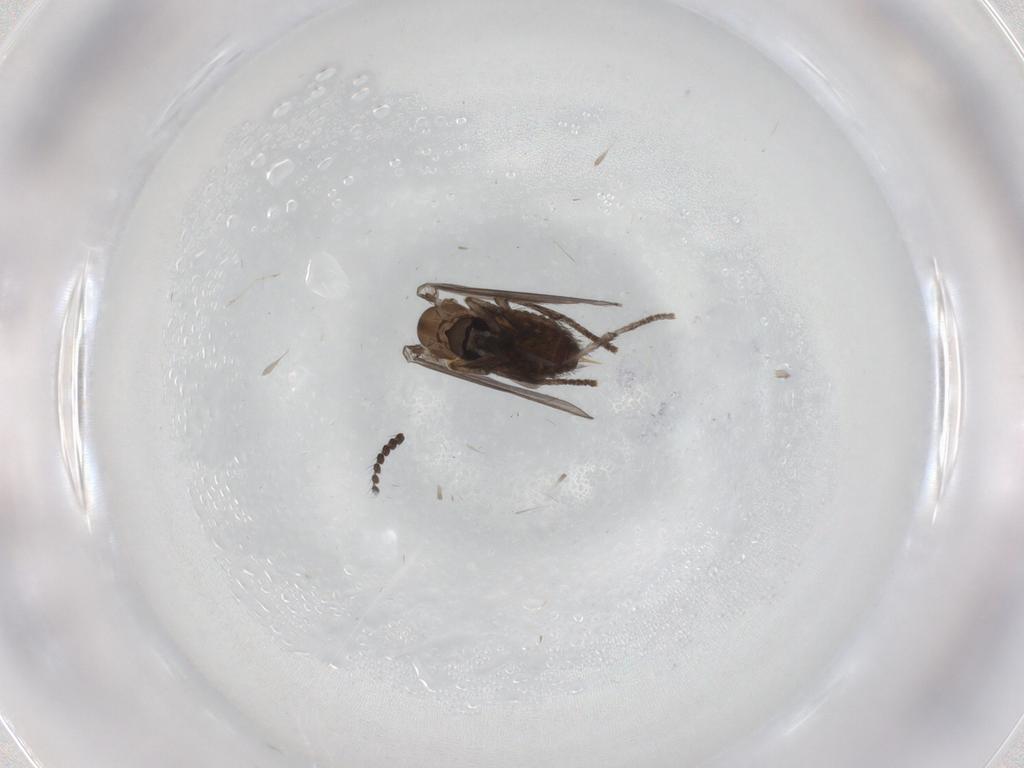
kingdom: Animalia
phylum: Arthropoda
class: Insecta
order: Diptera
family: Psychodidae
